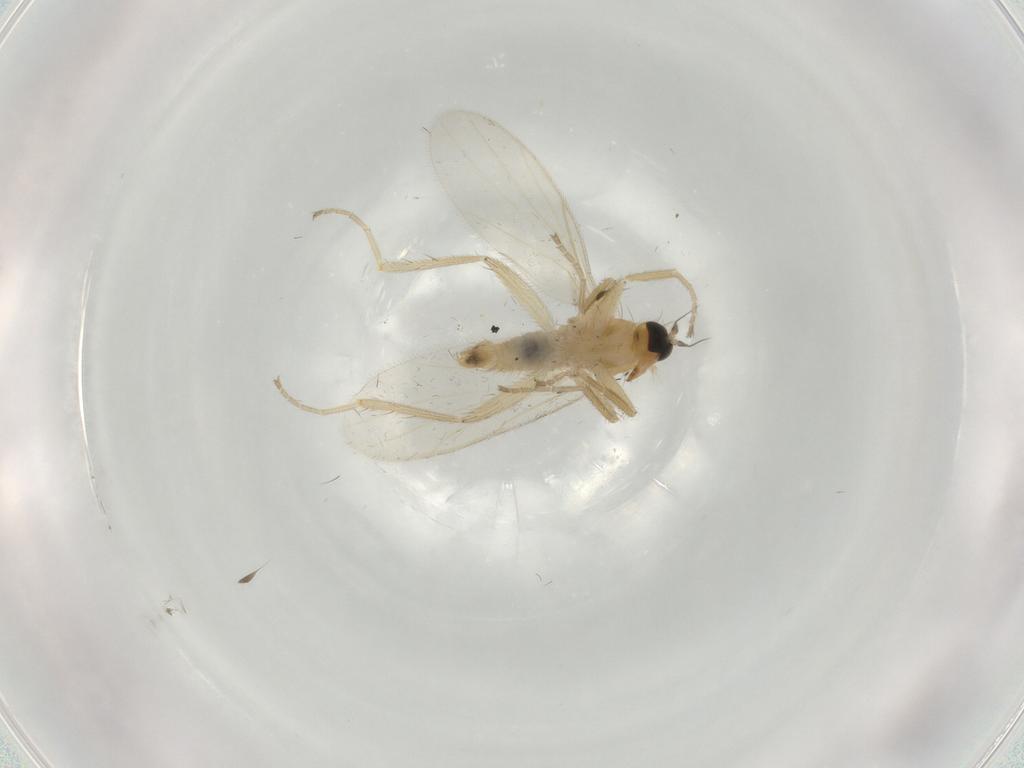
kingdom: Animalia
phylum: Arthropoda
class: Insecta
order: Diptera
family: Hybotidae
